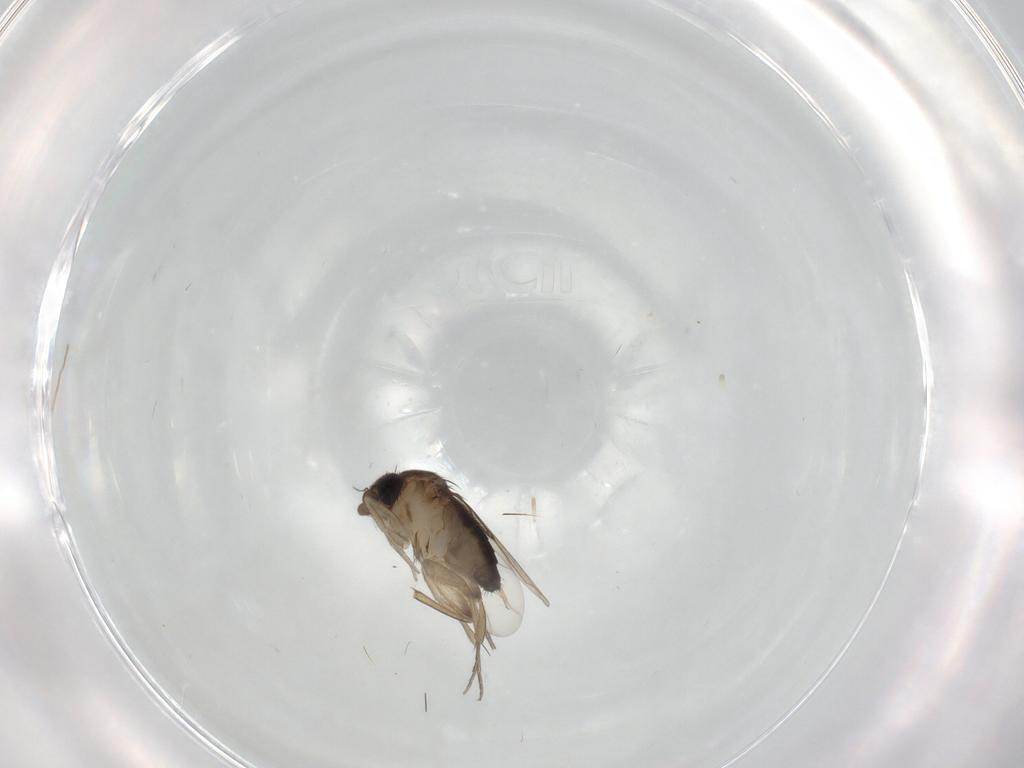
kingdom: Animalia
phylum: Arthropoda
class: Insecta
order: Diptera
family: Phoridae
